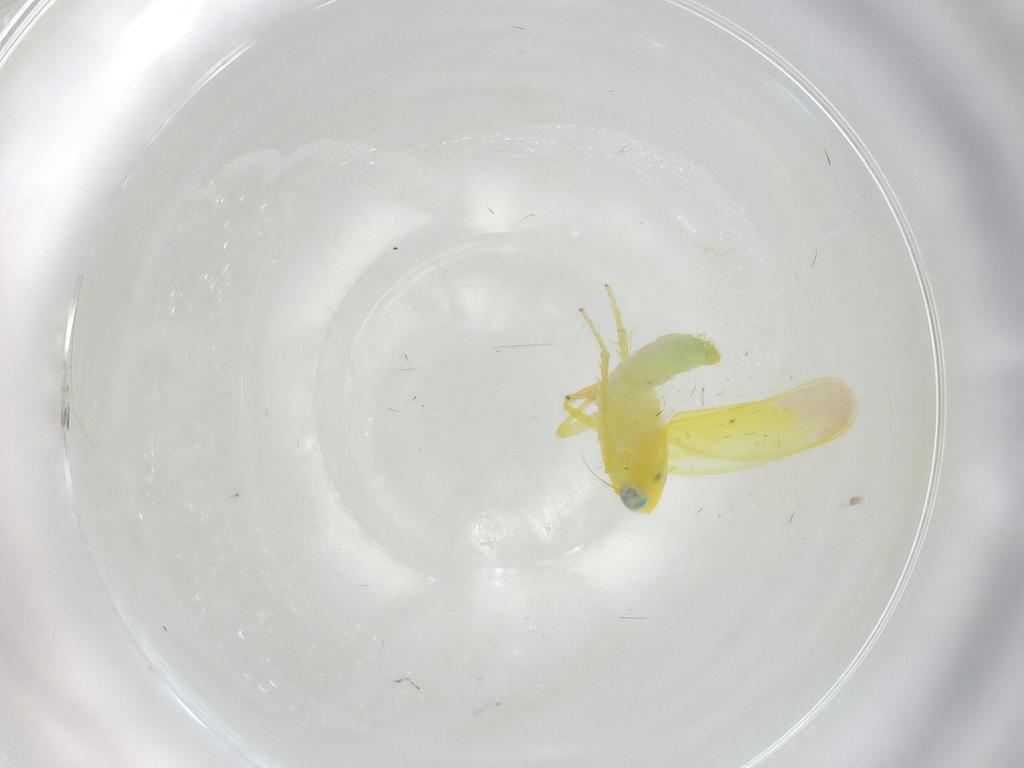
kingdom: Animalia
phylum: Arthropoda
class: Insecta
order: Hemiptera
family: Cicadellidae
